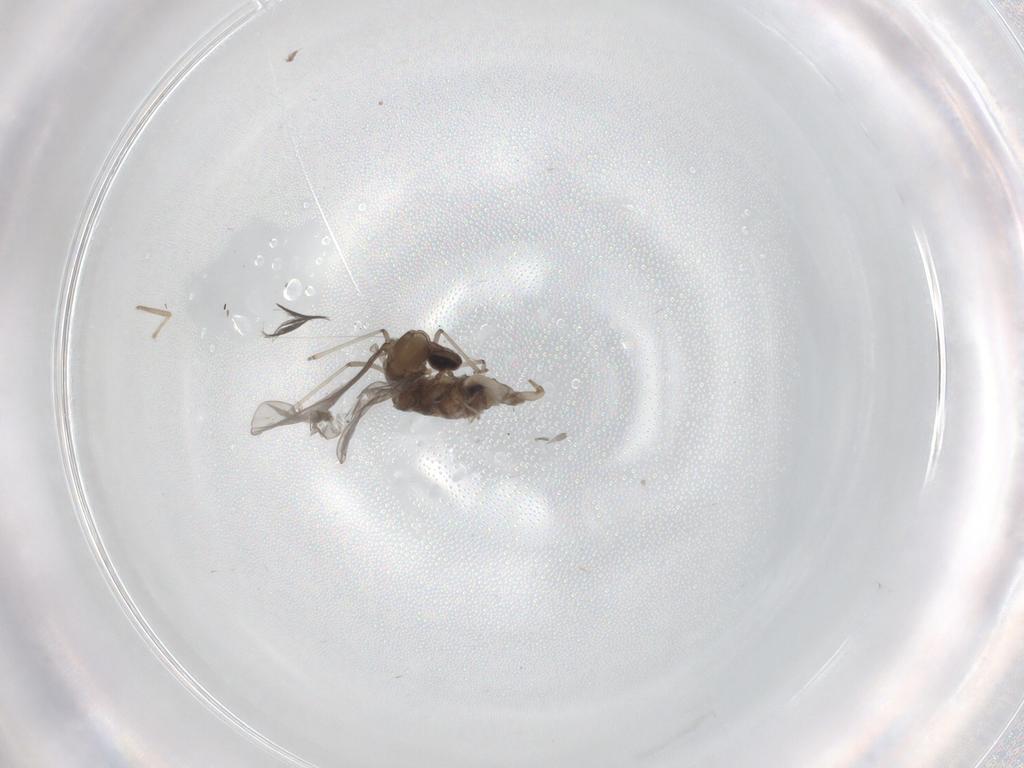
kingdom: Animalia
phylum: Arthropoda
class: Insecta
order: Diptera
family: Cecidomyiidae
